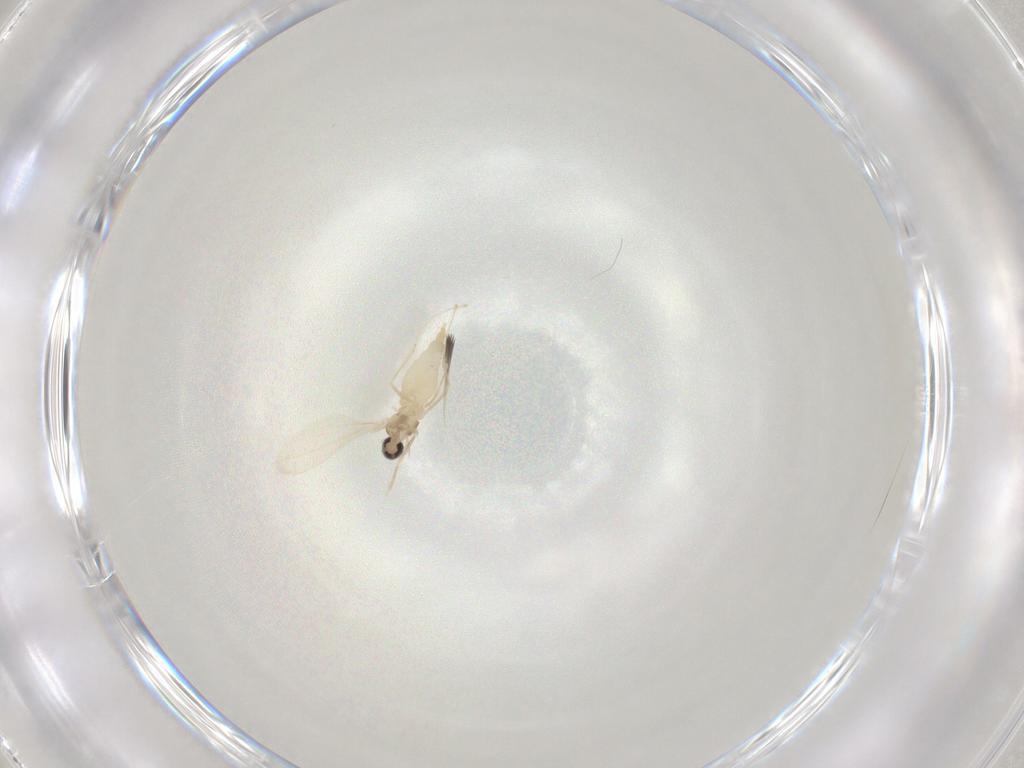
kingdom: Animalia
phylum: Arthropoda
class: Insecta
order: Diptera
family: Cecidomyiidae
